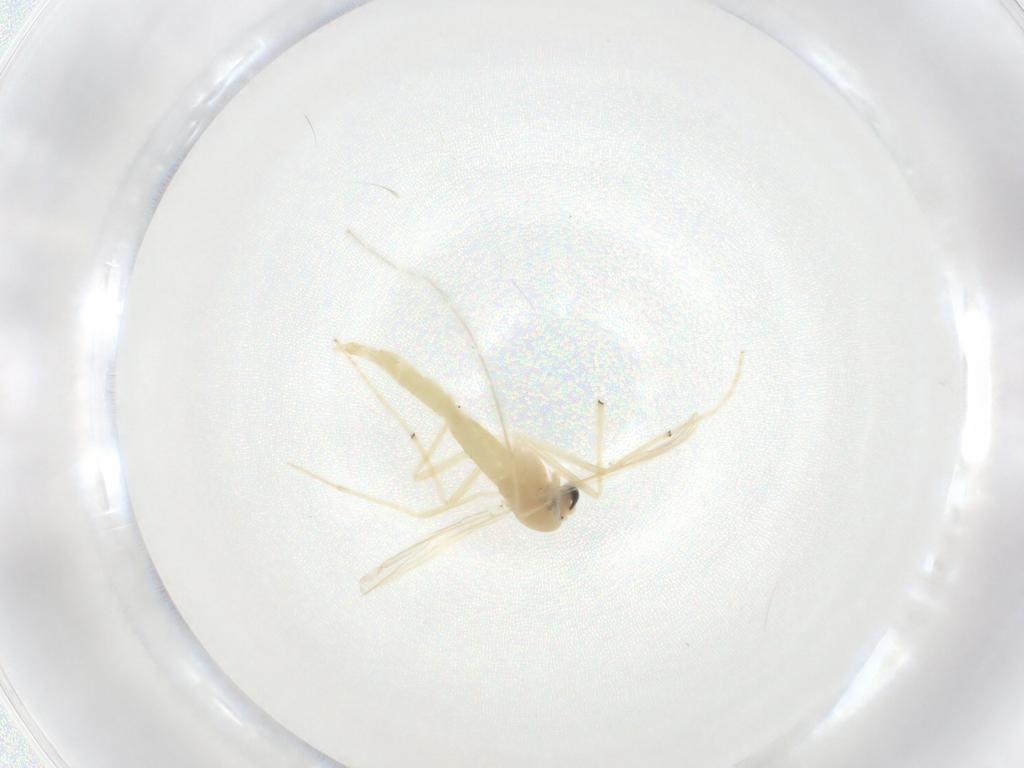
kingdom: Animalia
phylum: Arthropoda
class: Insecta
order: Diptera
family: Chironomidae
